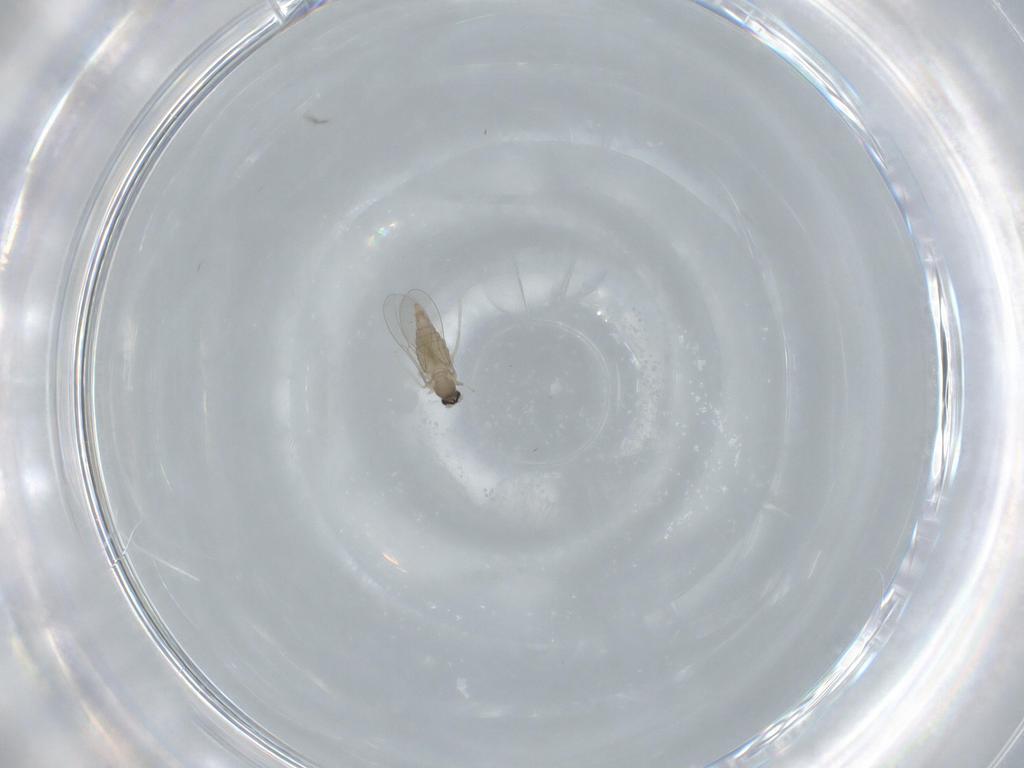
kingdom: Animalia
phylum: Arthropoda
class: Insecta
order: Diptera
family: Cecidomyiidae
